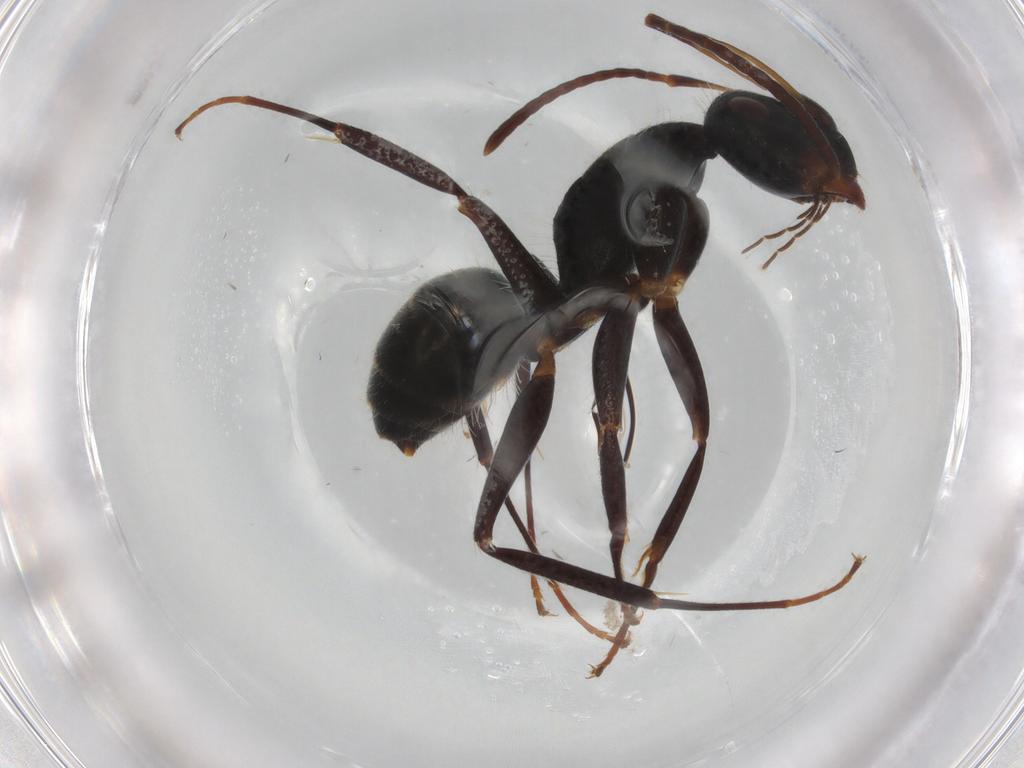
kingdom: Animalia
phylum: Arthropoda
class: Insecta
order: Hymenoptera
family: Formicidae
